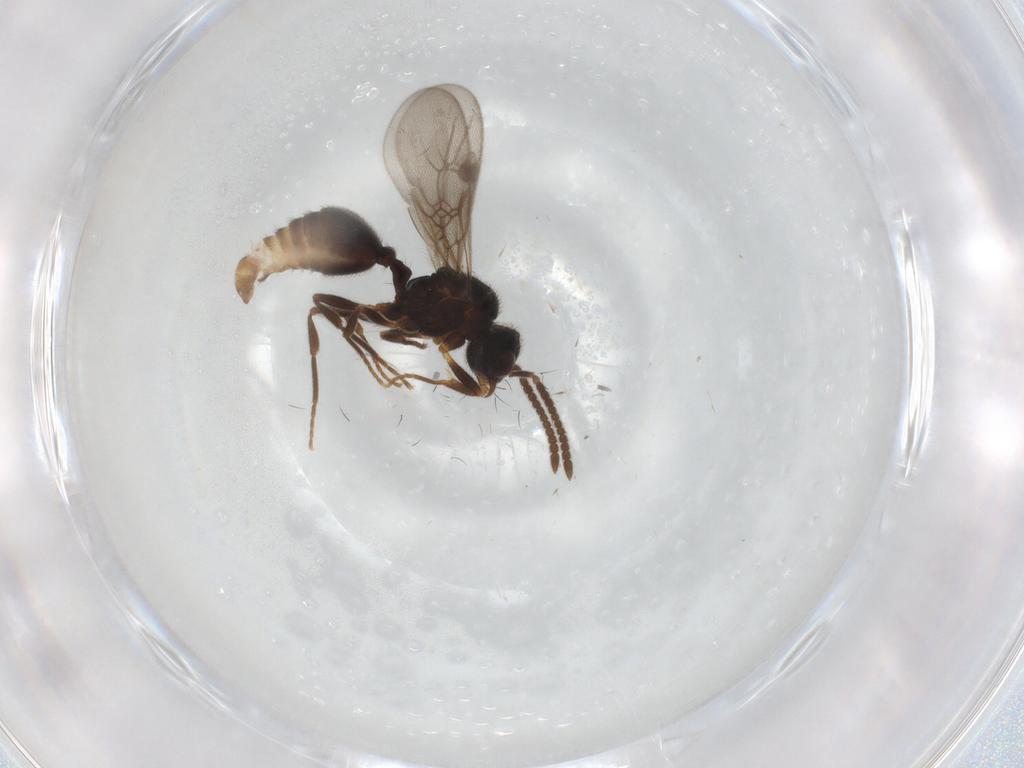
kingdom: Animalia
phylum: Arthropoda
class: Insecta
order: Hymenoptera
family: Formicidae
